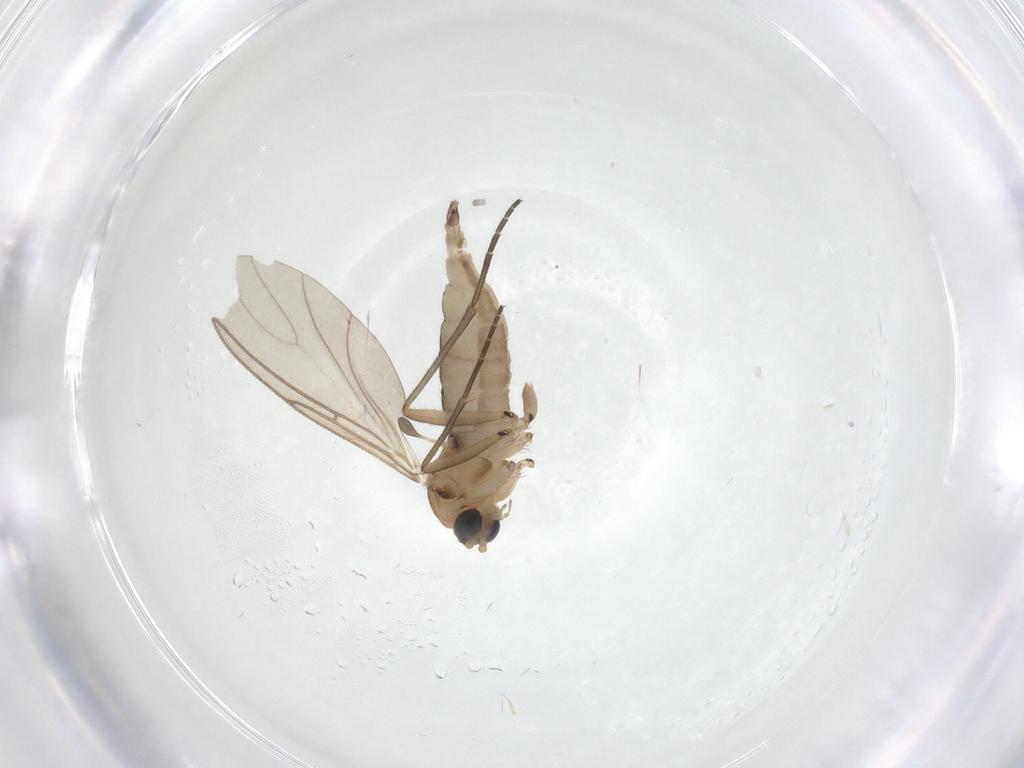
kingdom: Animalia
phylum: Arthropoda
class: Insecta
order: Diptera
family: Sciaridae
